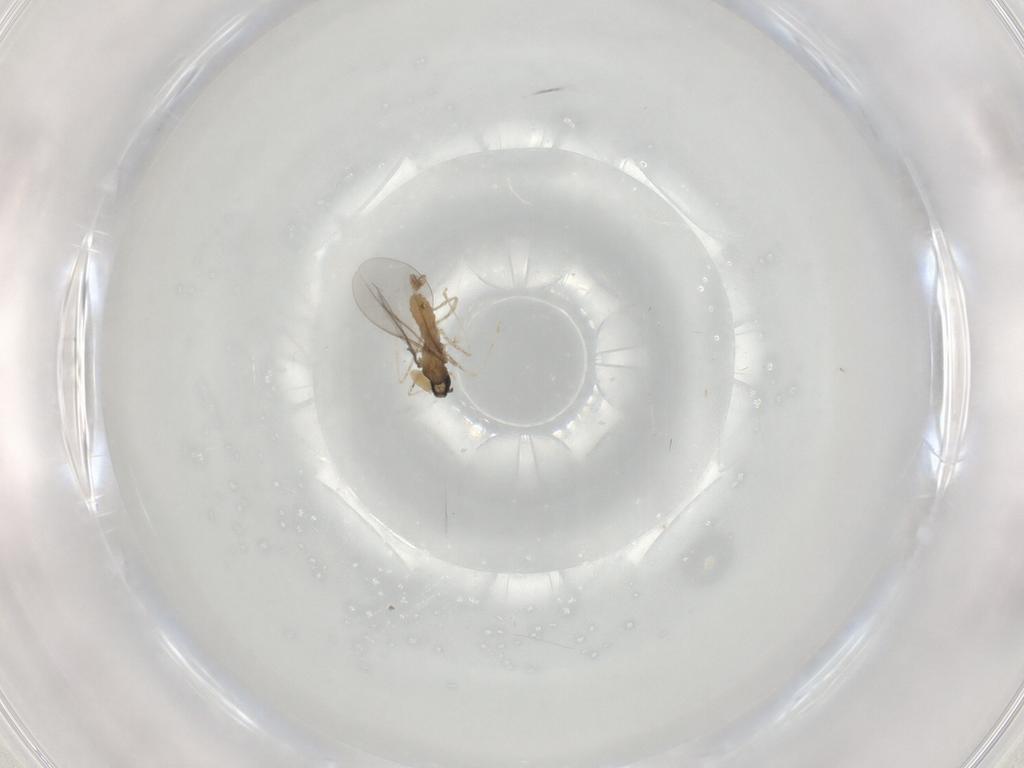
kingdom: Animalia
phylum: Arthropoda
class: Insecta
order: Diptera
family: Cecidomyiidae
